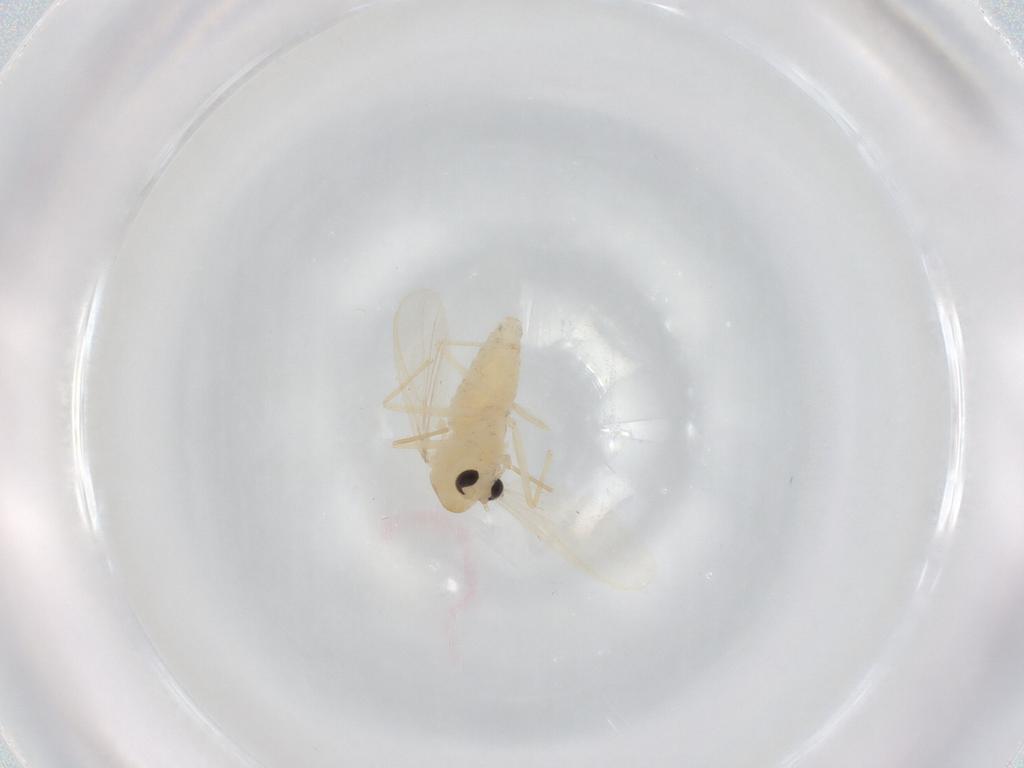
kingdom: Animalia
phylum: Arthropoda
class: Insecta
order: Diptera
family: Chironomidae
